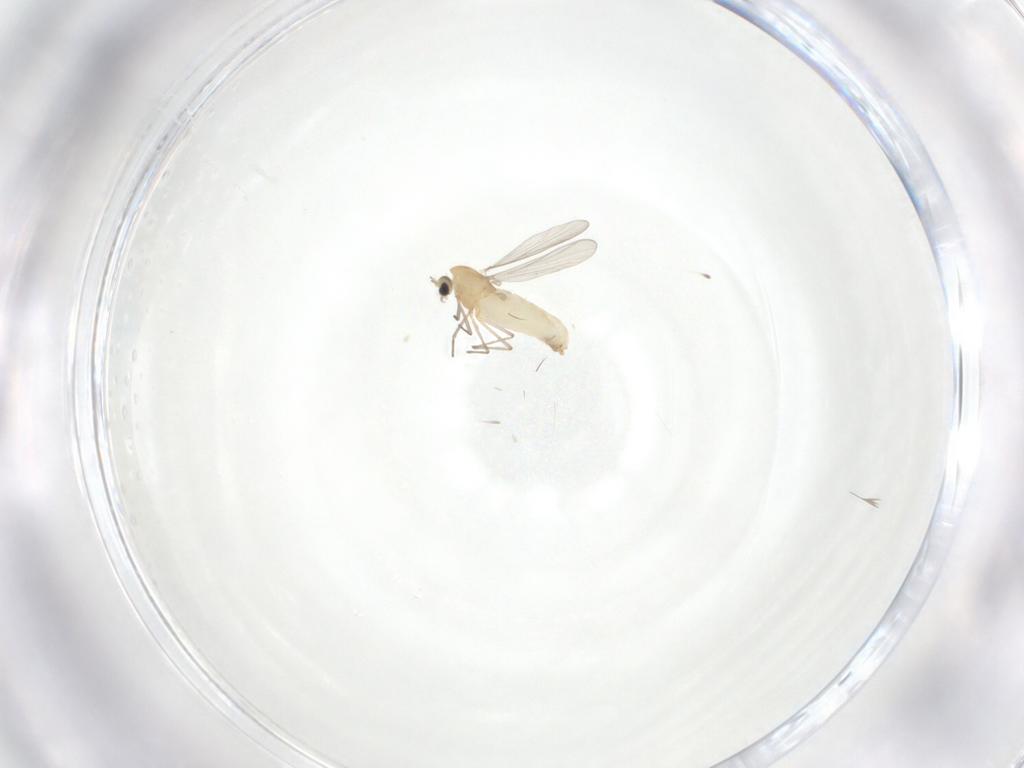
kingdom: Animalia
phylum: Arthropoda
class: Insecta
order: Diptera
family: Chironomidae
